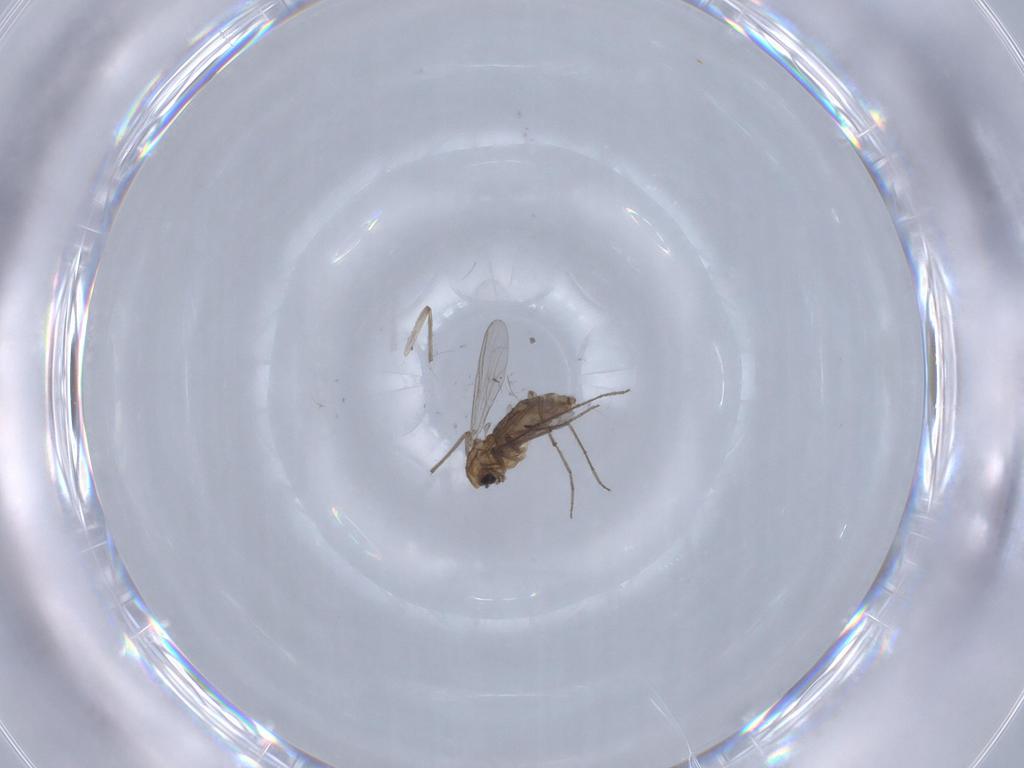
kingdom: Animalia
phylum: Arthropoda
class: Insecta
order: Diptera
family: Chironomidae
